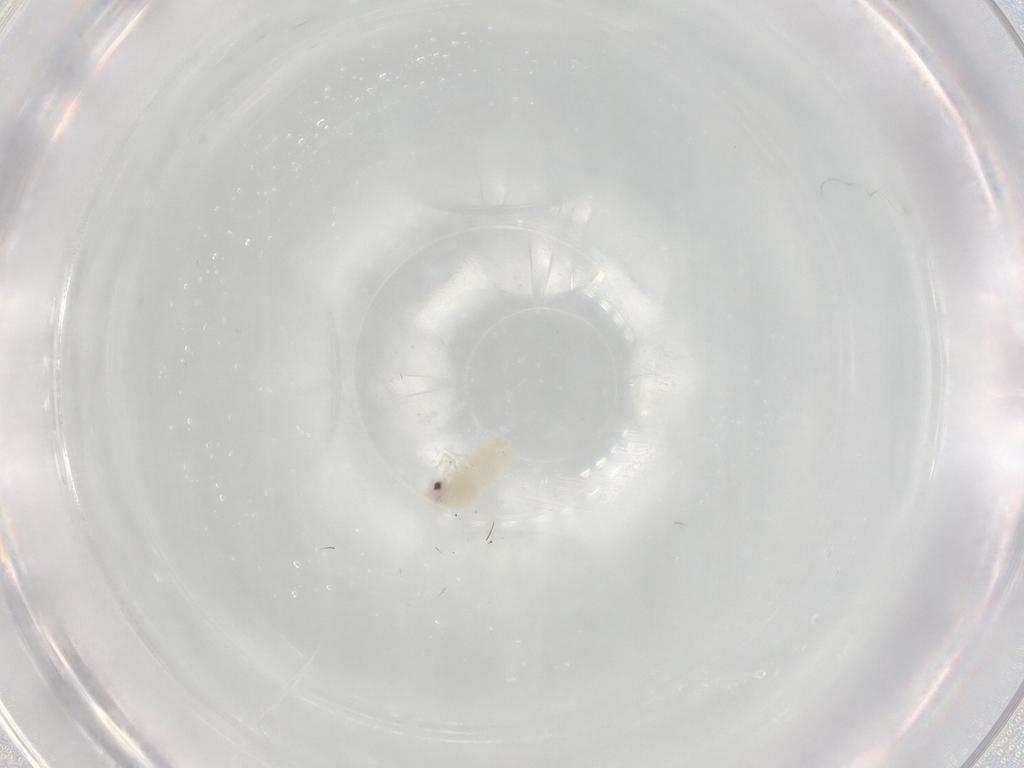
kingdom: Animalia
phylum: Arthropoda
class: Insecta
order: Hemiptera
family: Aleyrodidae
